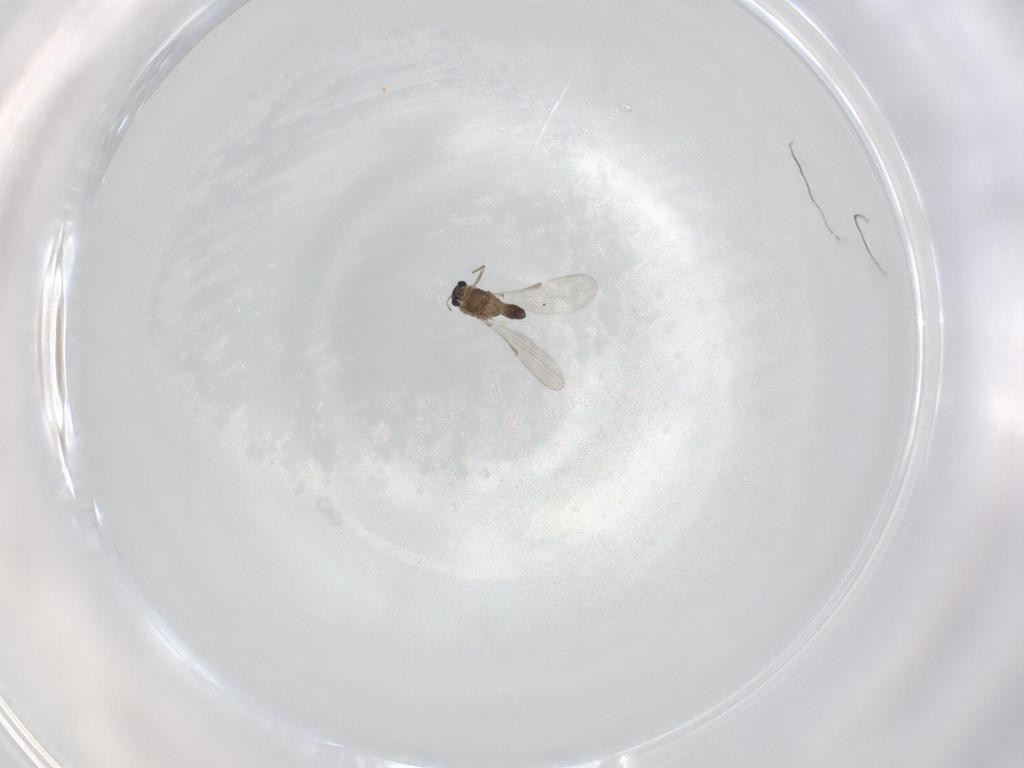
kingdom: Animalia
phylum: Arthropoda
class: Insecta
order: Diptera
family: Chironomidae
